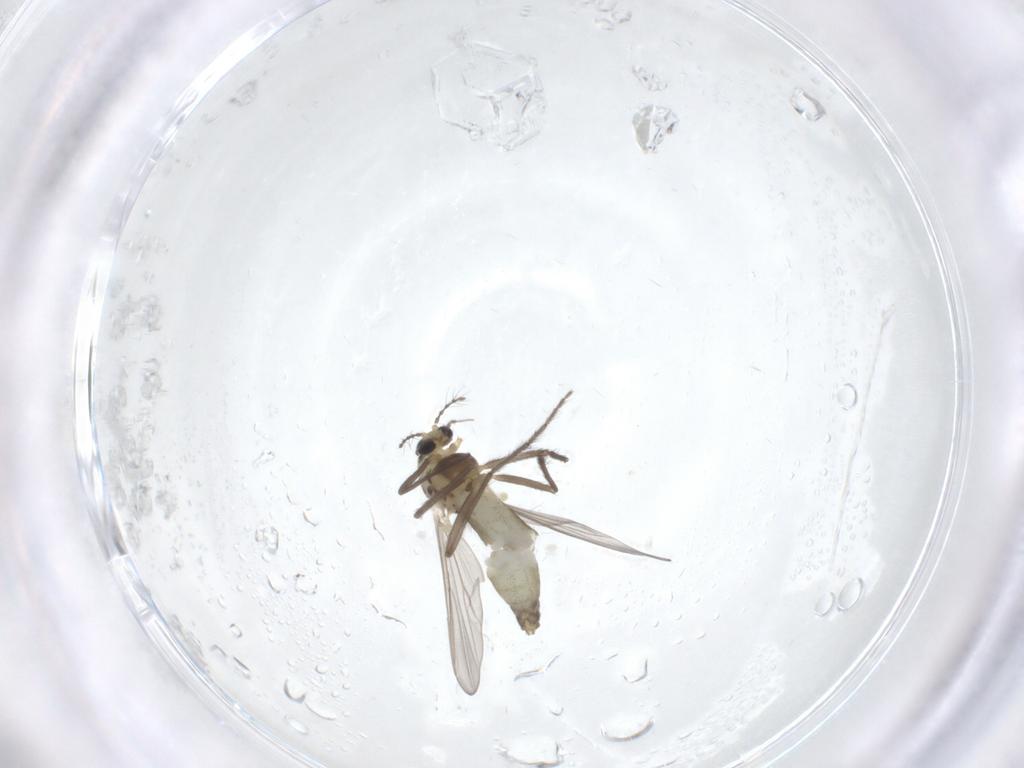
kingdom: Animalia
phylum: Arthropoda
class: Insecta
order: Diptera
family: Chironomidae
